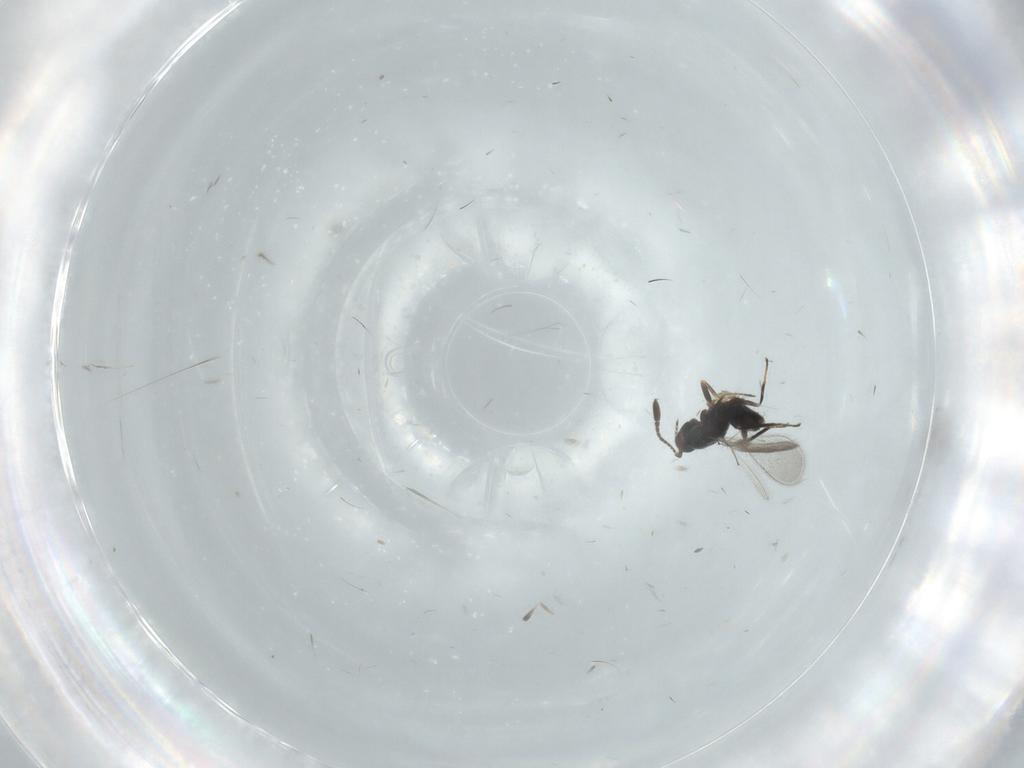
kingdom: Animalia
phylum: Arthropoda
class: Insecta
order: Hymenoptera
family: Mymaridae
